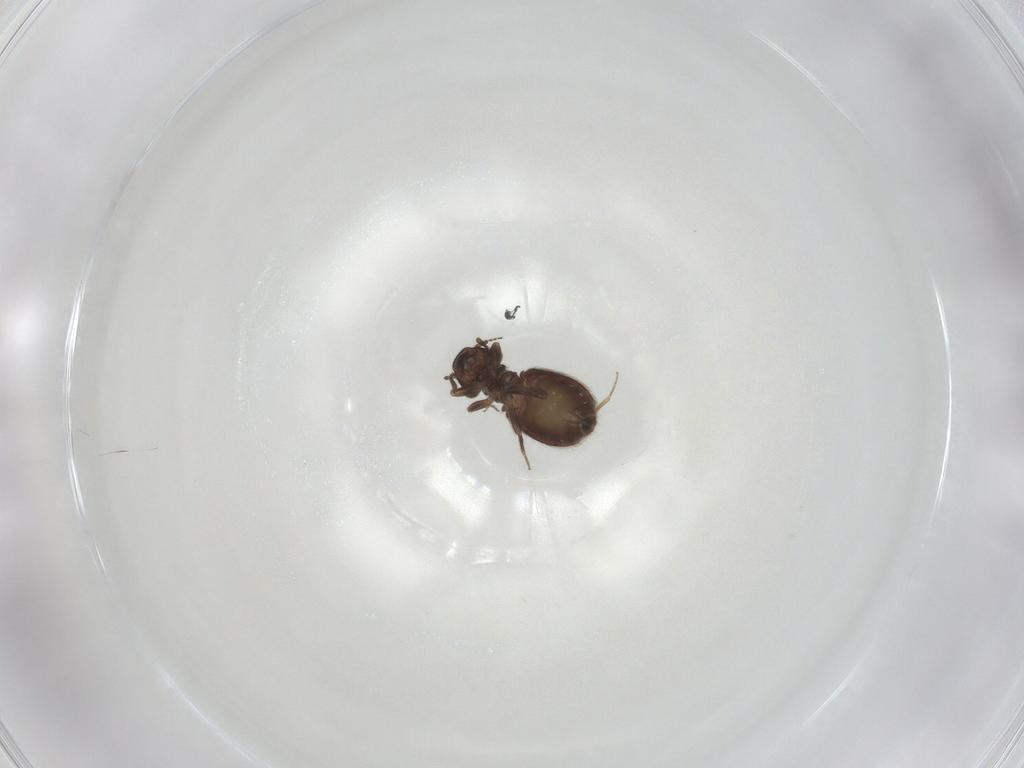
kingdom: Animalia
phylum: Arthropoda
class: Insecta
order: Psocodea
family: Trogiidae
